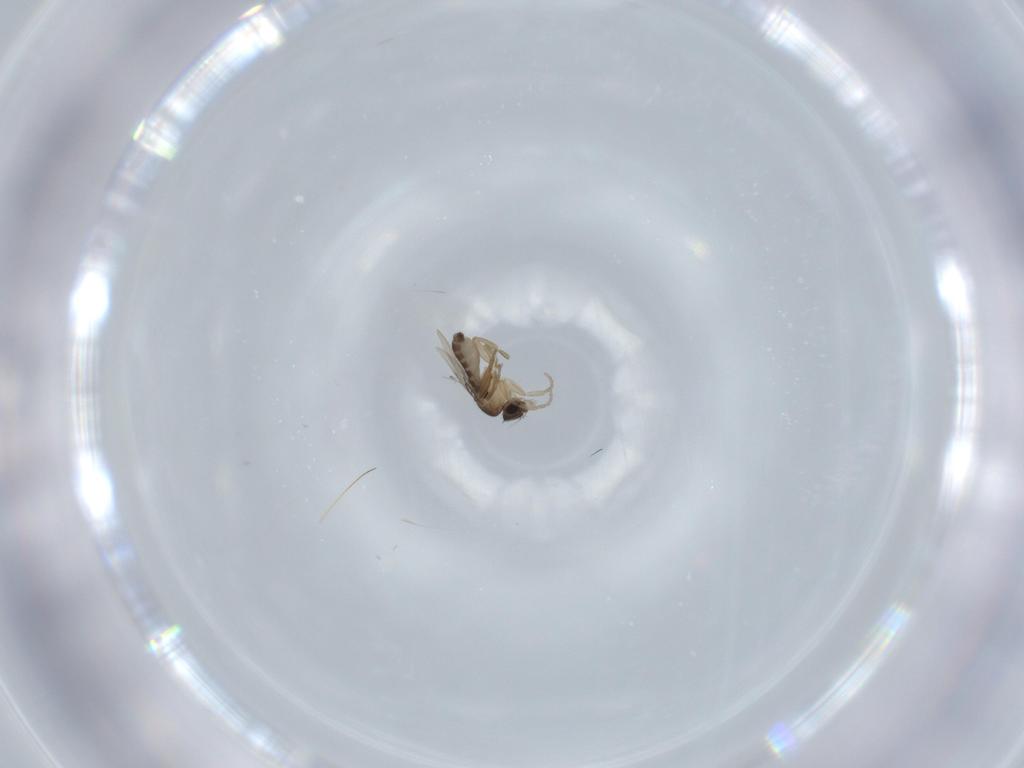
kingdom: Animalia
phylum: Arthropoda
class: Insecta
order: Diptera
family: Phoridae
